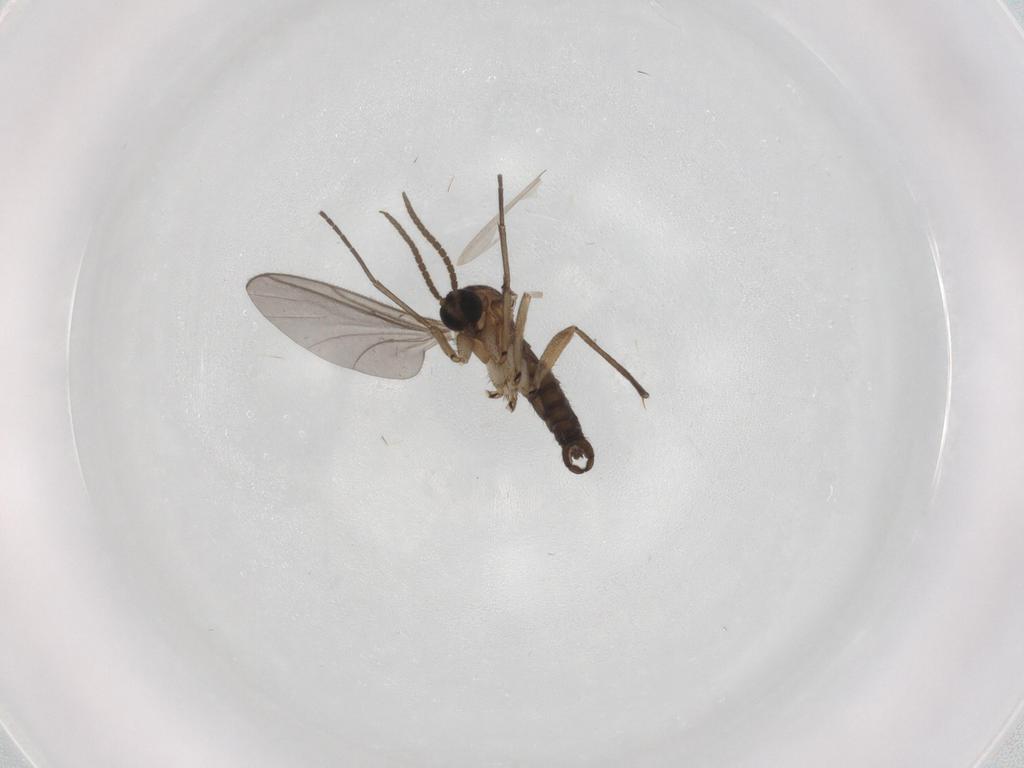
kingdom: Animalia
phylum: Arthropoda
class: Insecta
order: Diptera
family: Cecidomyiidae
